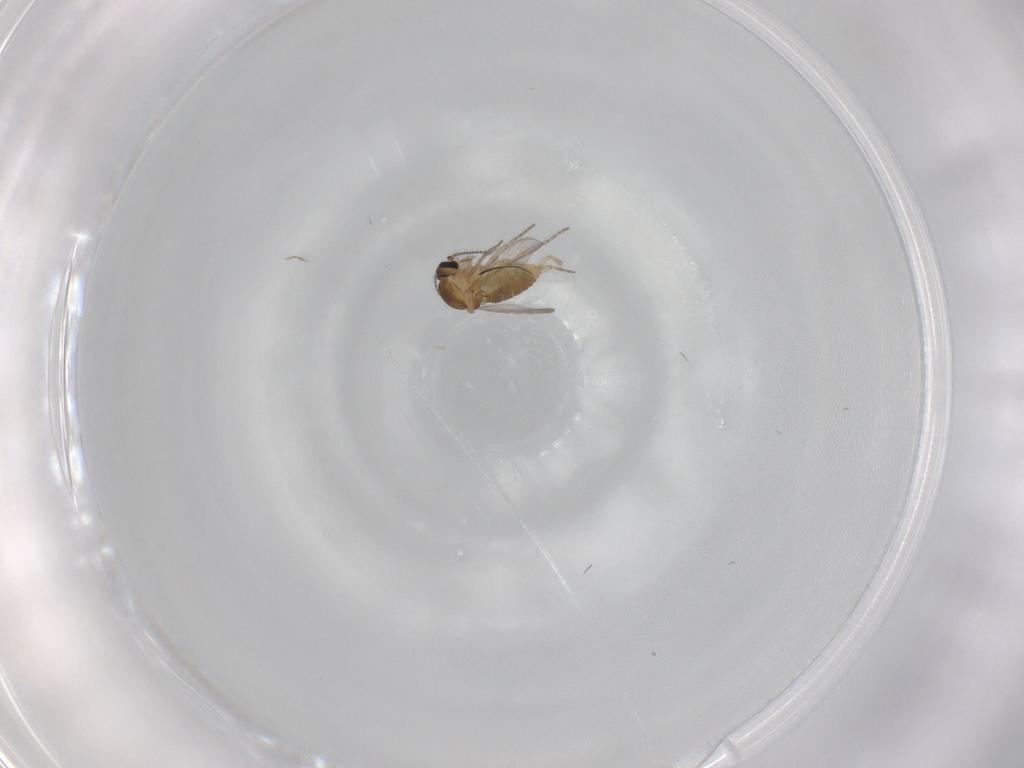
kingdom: Animalia
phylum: Arthropoda
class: Insecta
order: Diptera
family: Ceratopogonidae
